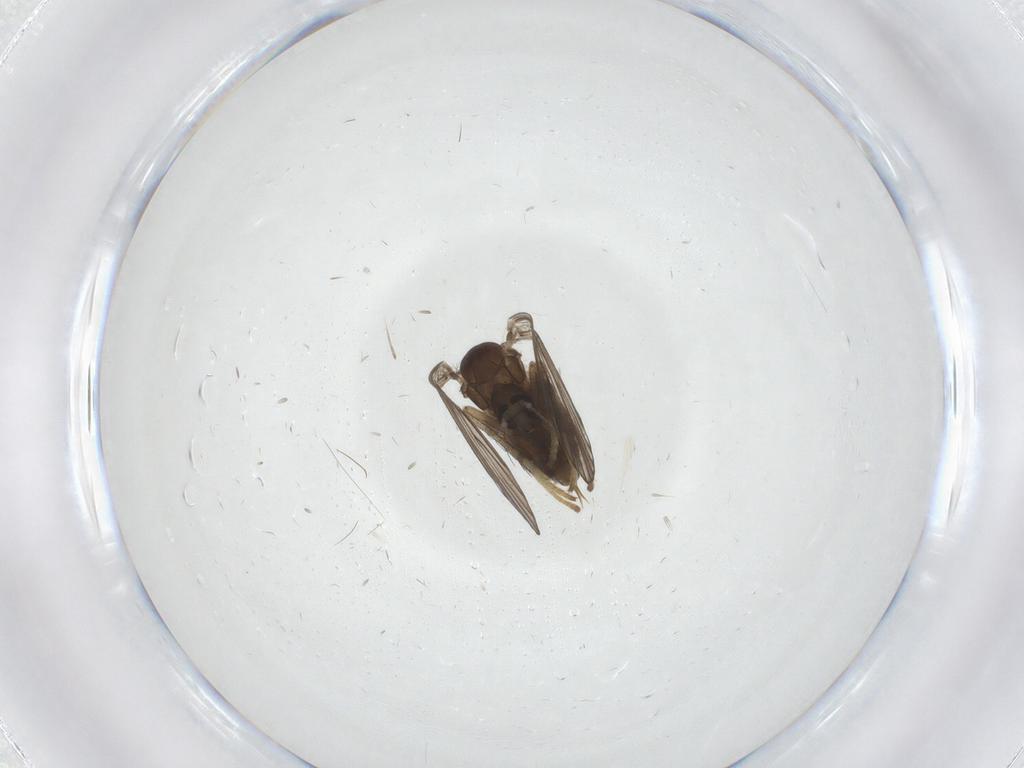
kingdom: Animalia
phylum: Arthropoda
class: Insecta
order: Diptera
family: Psychodidae
